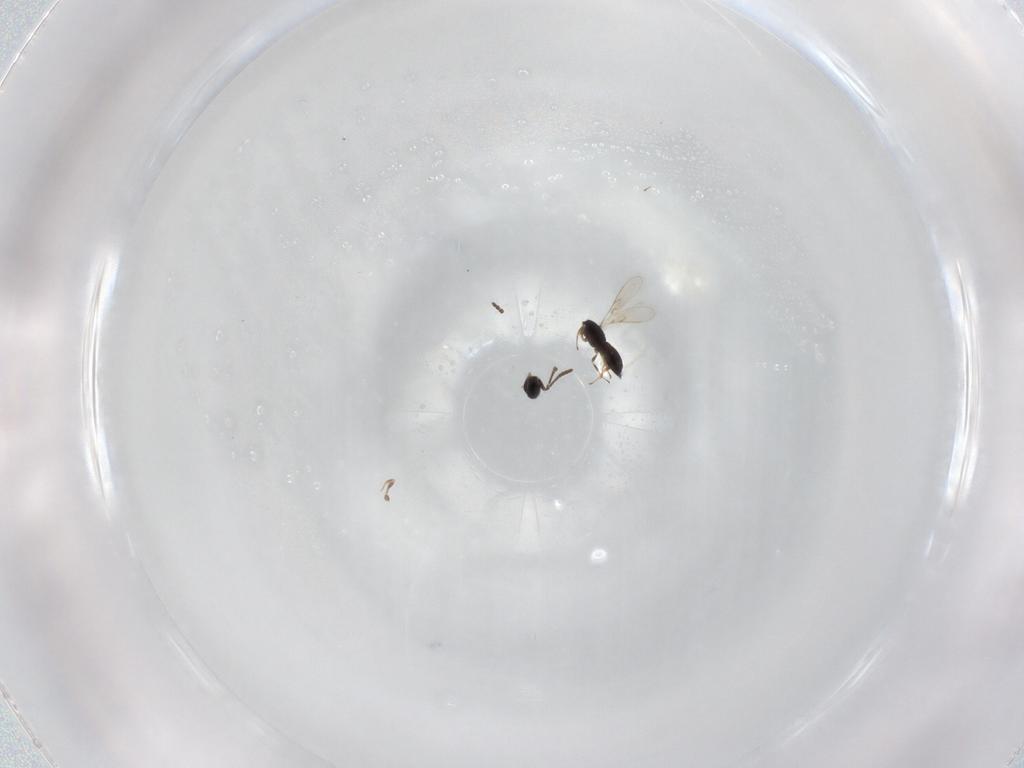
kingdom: Animalia
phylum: Arthropoda
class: Insecta
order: Hymenoptera
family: Scelionidae
